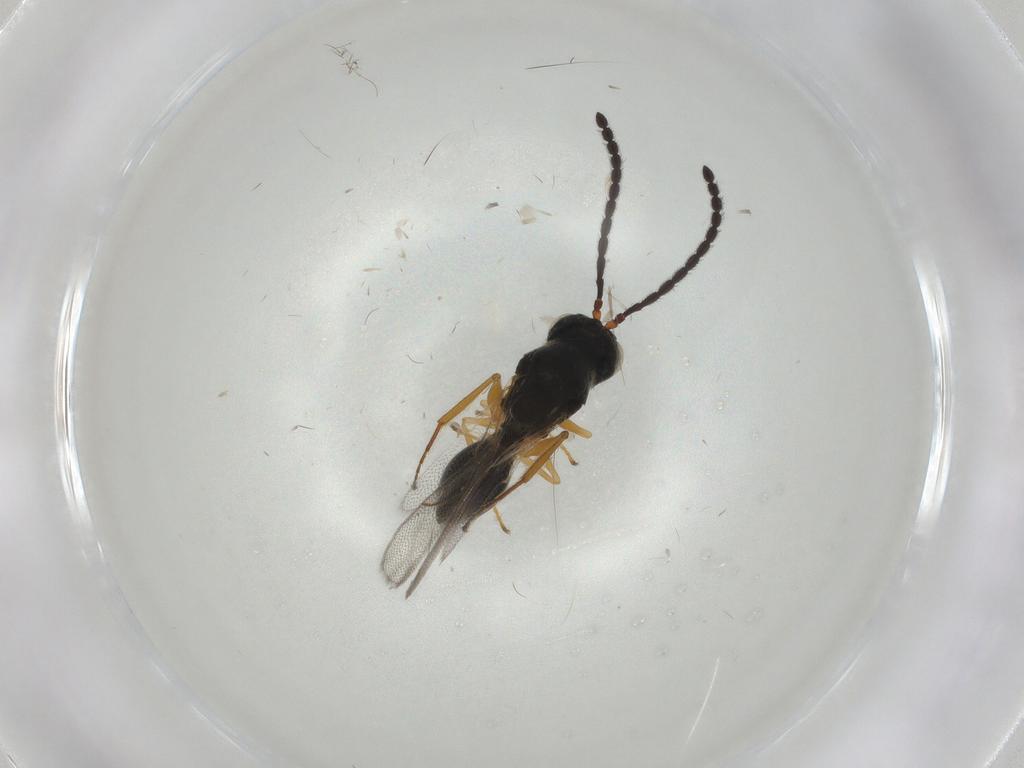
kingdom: Animalia
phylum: Arthropoda
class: Insecta
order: Hymenoptera
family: Figitidae
